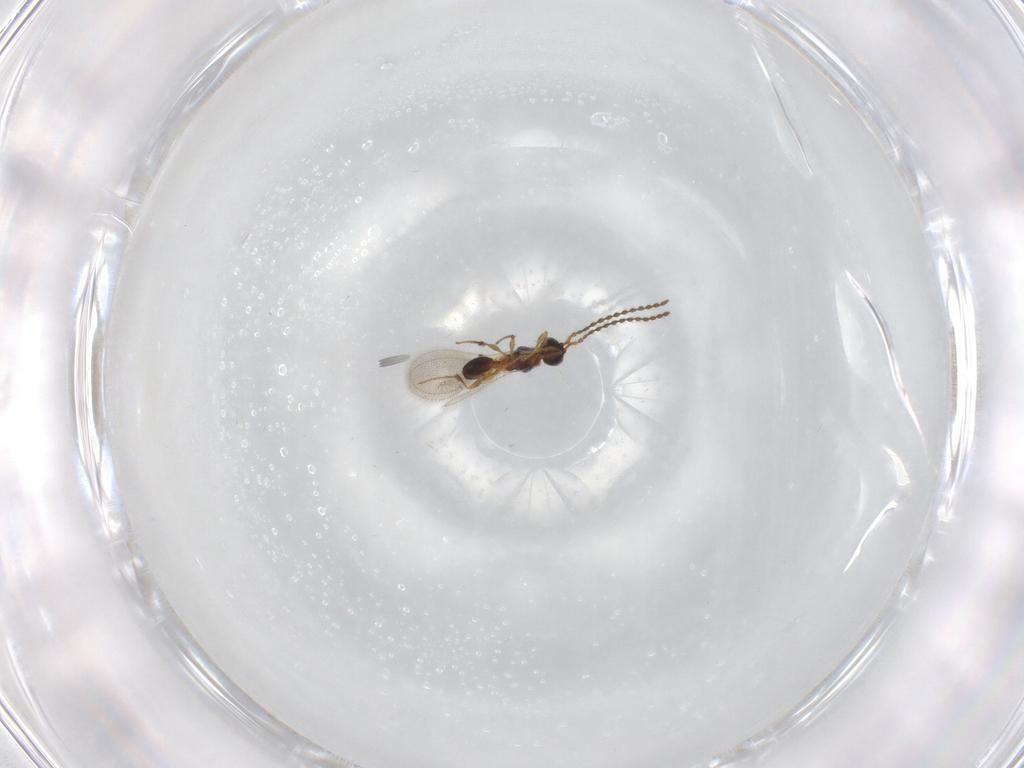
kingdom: Animalia
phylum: Arthropoda
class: Insecta
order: Hymenoptera
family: Diapriidae
